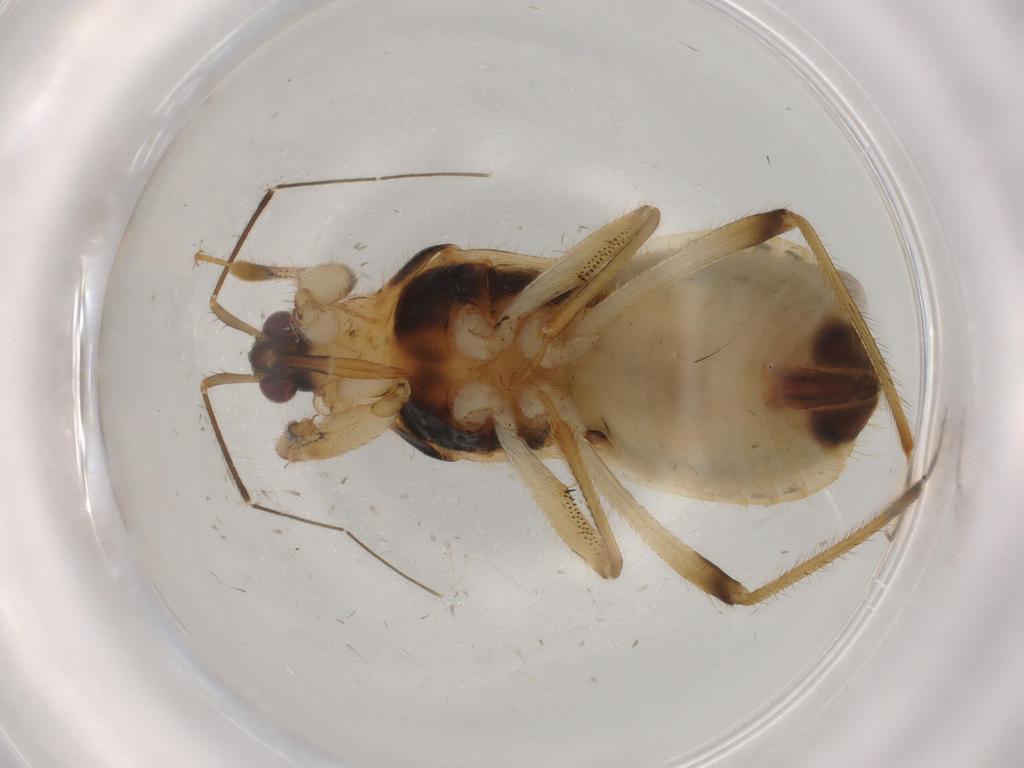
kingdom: Animalia
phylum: Arthropoda
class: Insecta
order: Hemiptera
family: Nabidae
